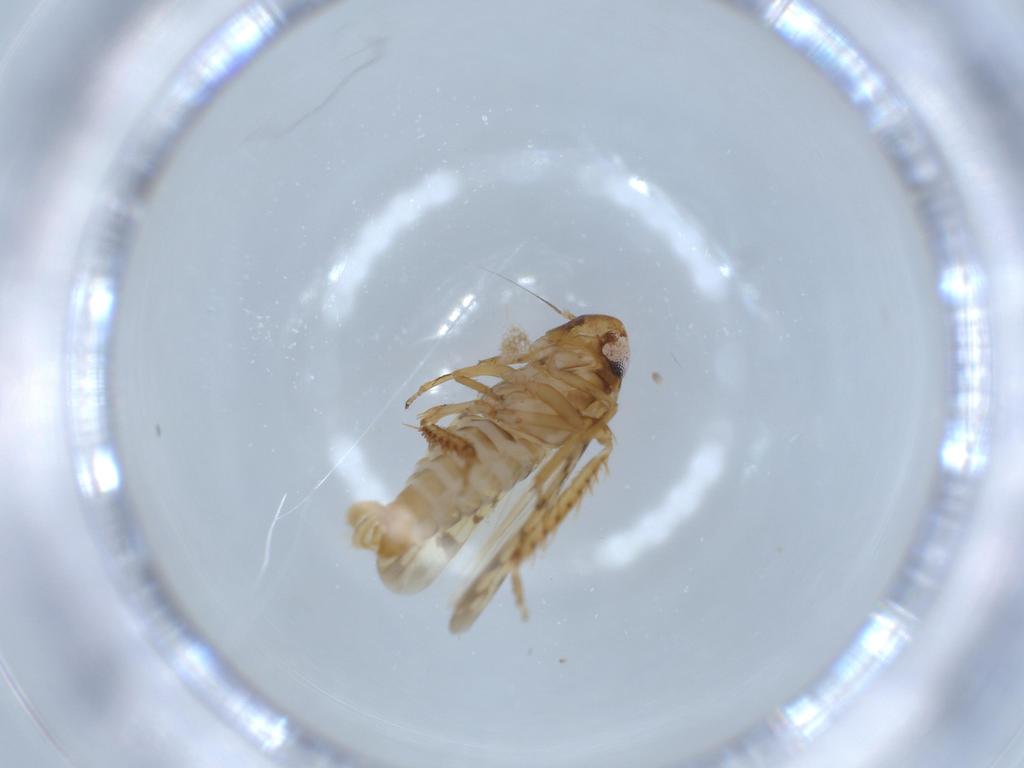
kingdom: Animalia
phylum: Arthropoda
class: Insecta
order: Hemiptera
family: Cicadellidae
